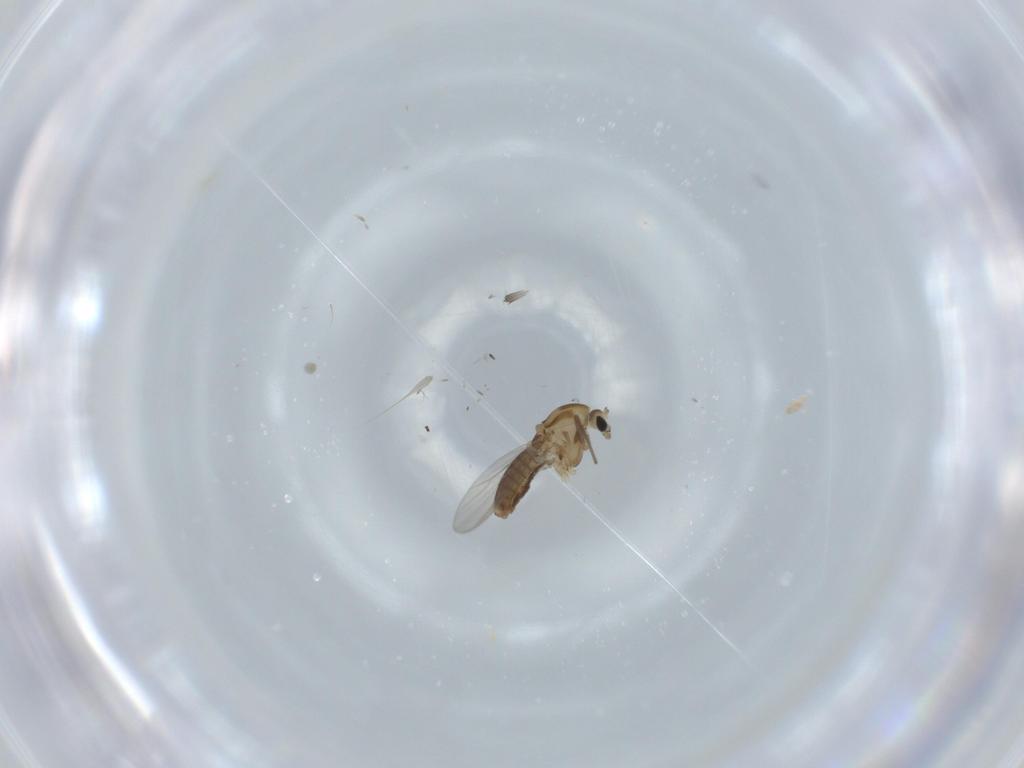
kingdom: Animalia
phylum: Arthropoda
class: Insecta
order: Diptera
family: Chironomidae
